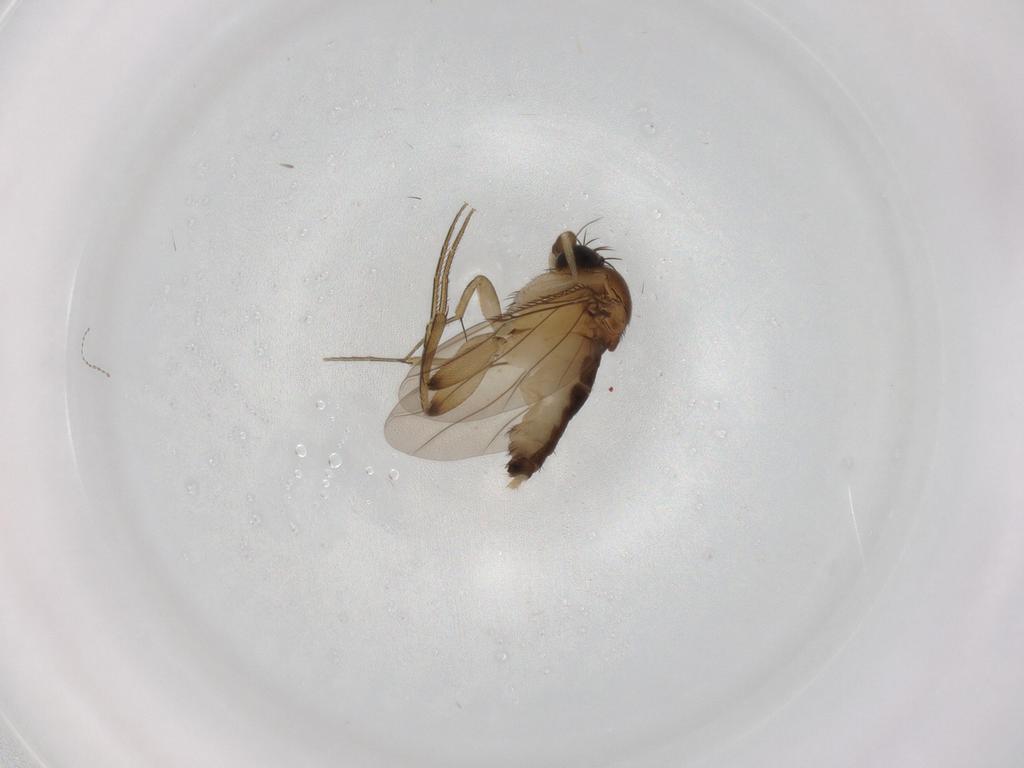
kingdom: Animalia
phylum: Arthropoda
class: Insecta
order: Diptera
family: Phoridae
